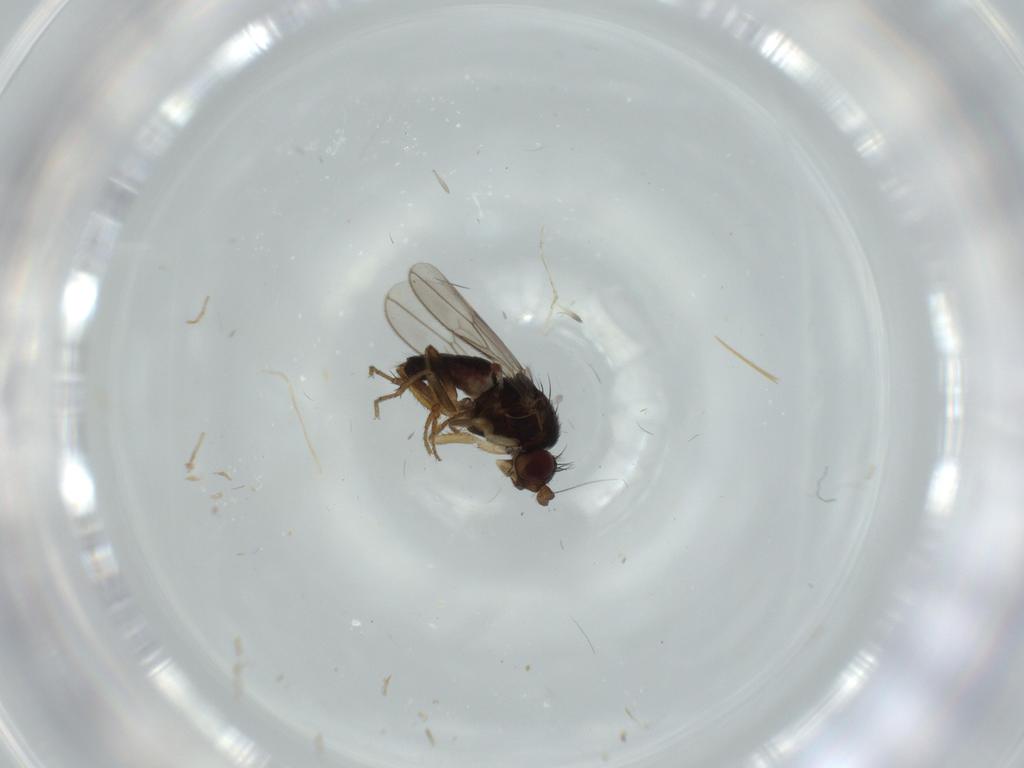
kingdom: Animalia
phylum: Arthropoda
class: Insecta
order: Diptera
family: Sphaeroceridae
